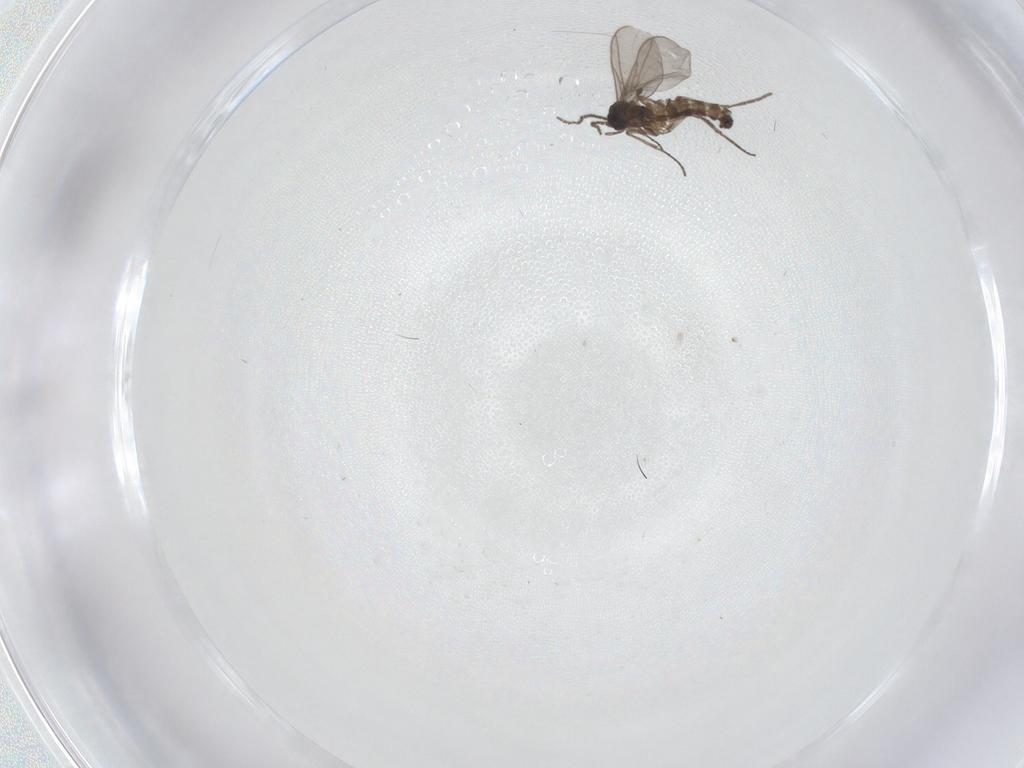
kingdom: Animalia
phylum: Arthropoda
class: Insecta
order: Diptera
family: Sciaridae
